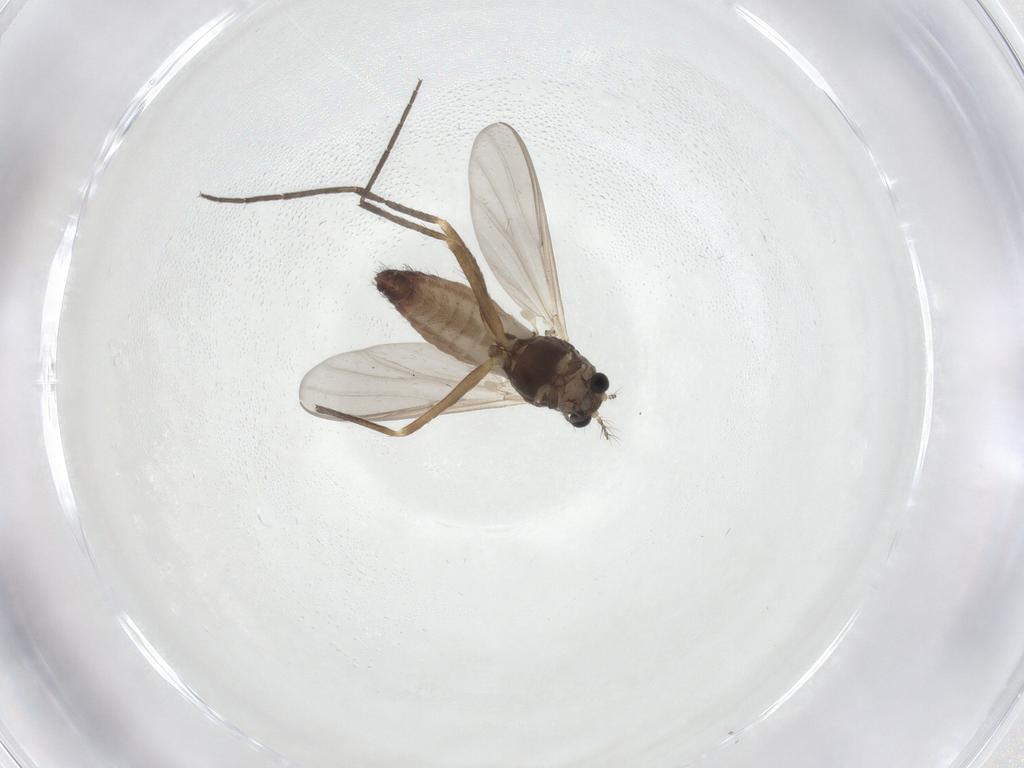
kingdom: Animalia
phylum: Arthropoda
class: Insecta
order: Diptera
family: Chironomidae
